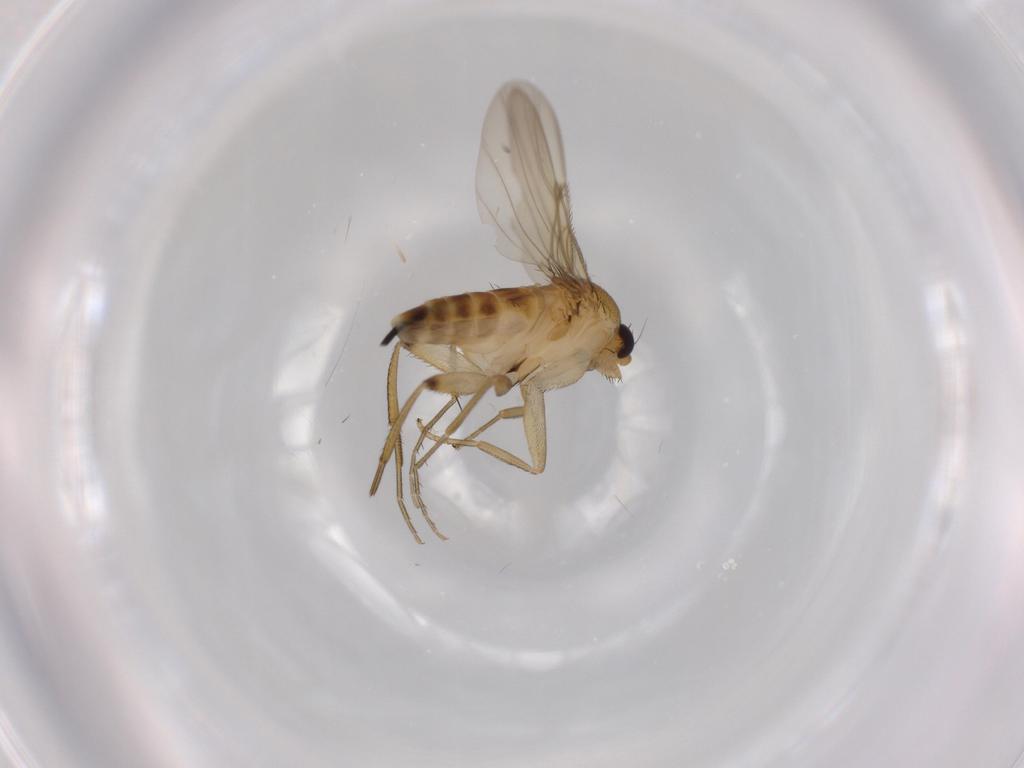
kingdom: Animalia
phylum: Arthropoda
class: Insecta
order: Diptera
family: Phoridae
